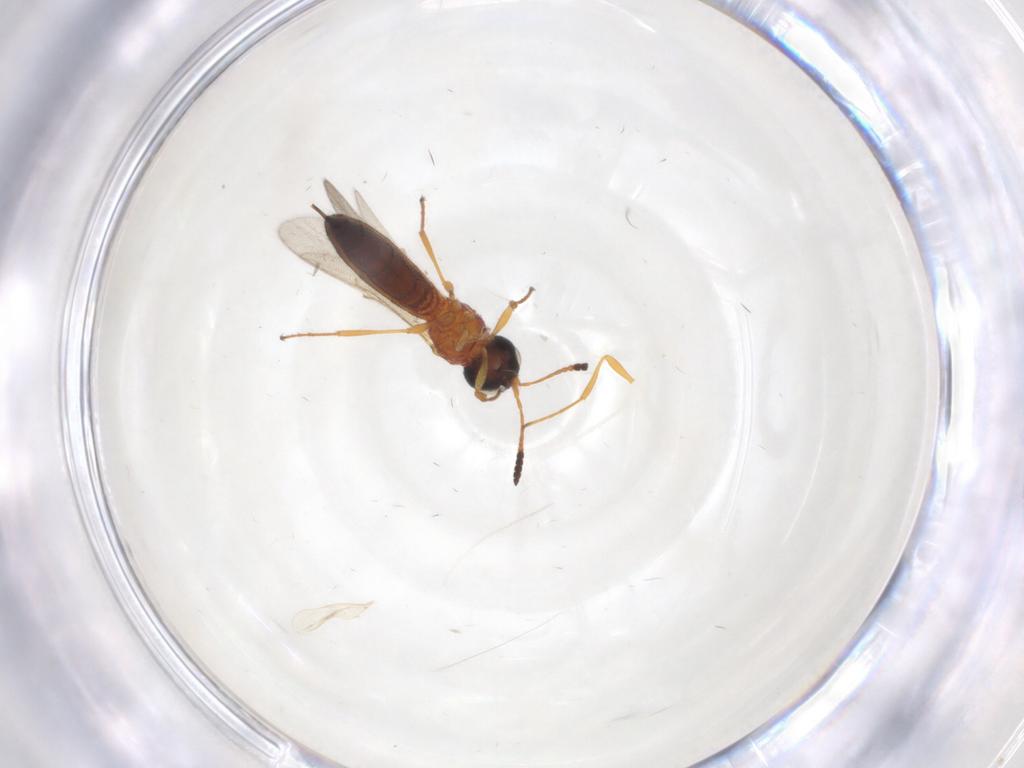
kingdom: Animalia
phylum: Arthropoda
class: Insecta
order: Hymenoptera
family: Scelionidae
